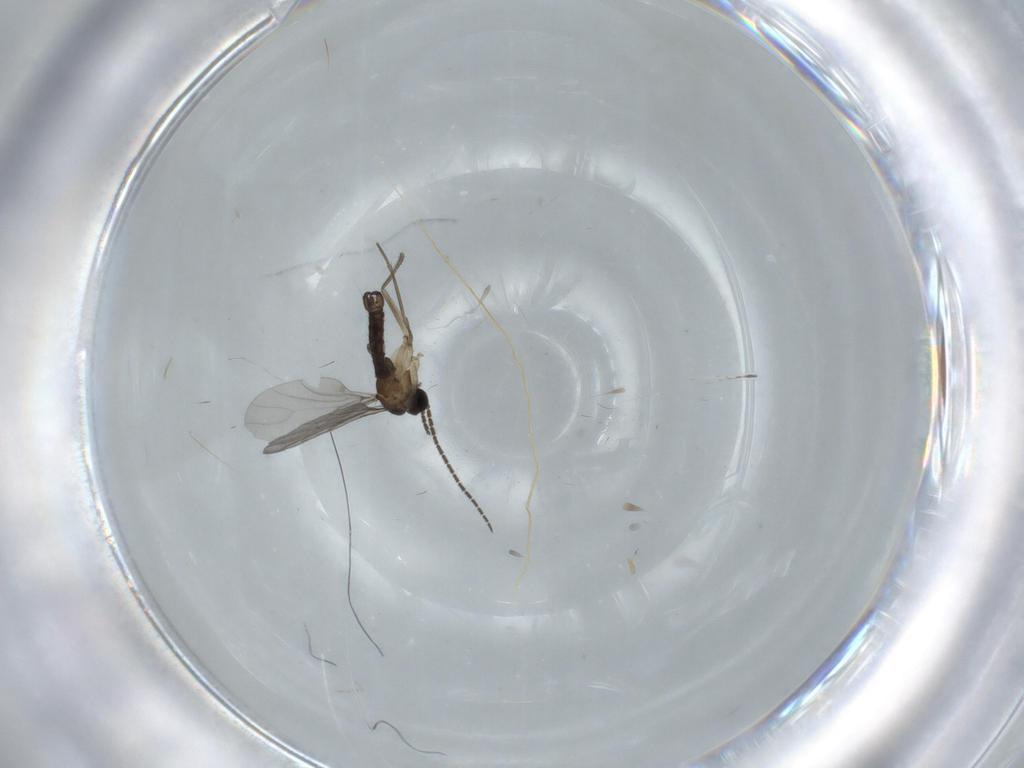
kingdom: Animalia
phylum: Arthropoda
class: Insecta
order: Diptera
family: Sciaridae
